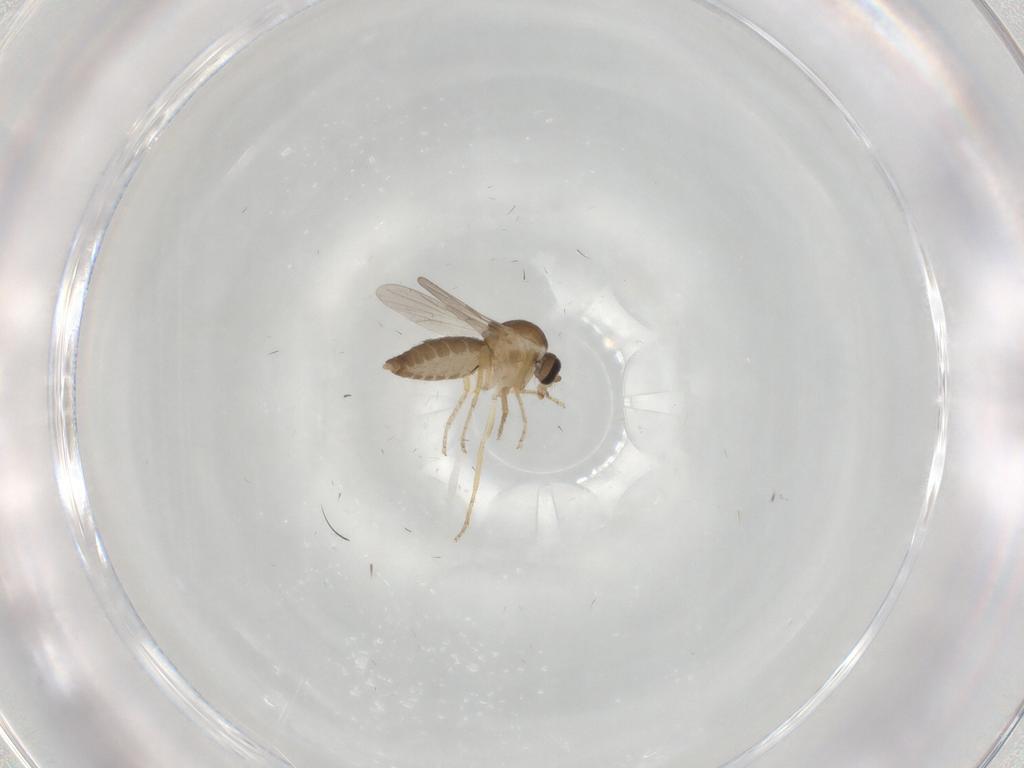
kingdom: Animalia
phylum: Arthropoda
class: Insecta
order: Diptera
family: Ceratopogonidae
